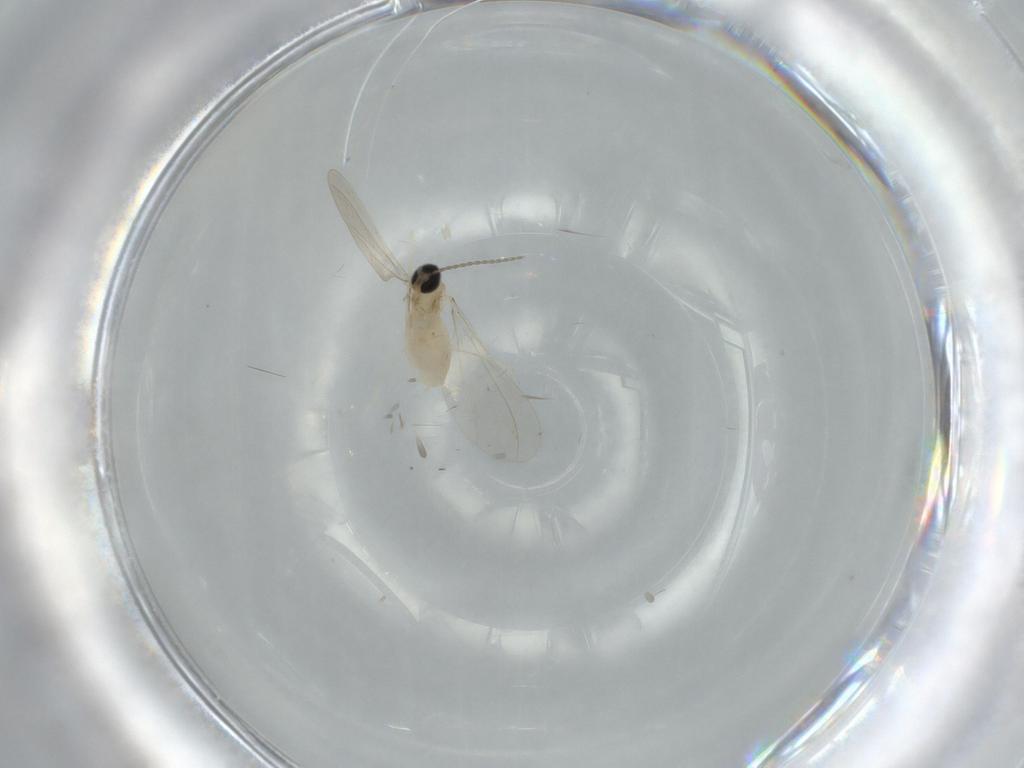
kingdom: Animalia
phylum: Arthropoda
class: Insecta
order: Diptera
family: Cecidomyiidae
